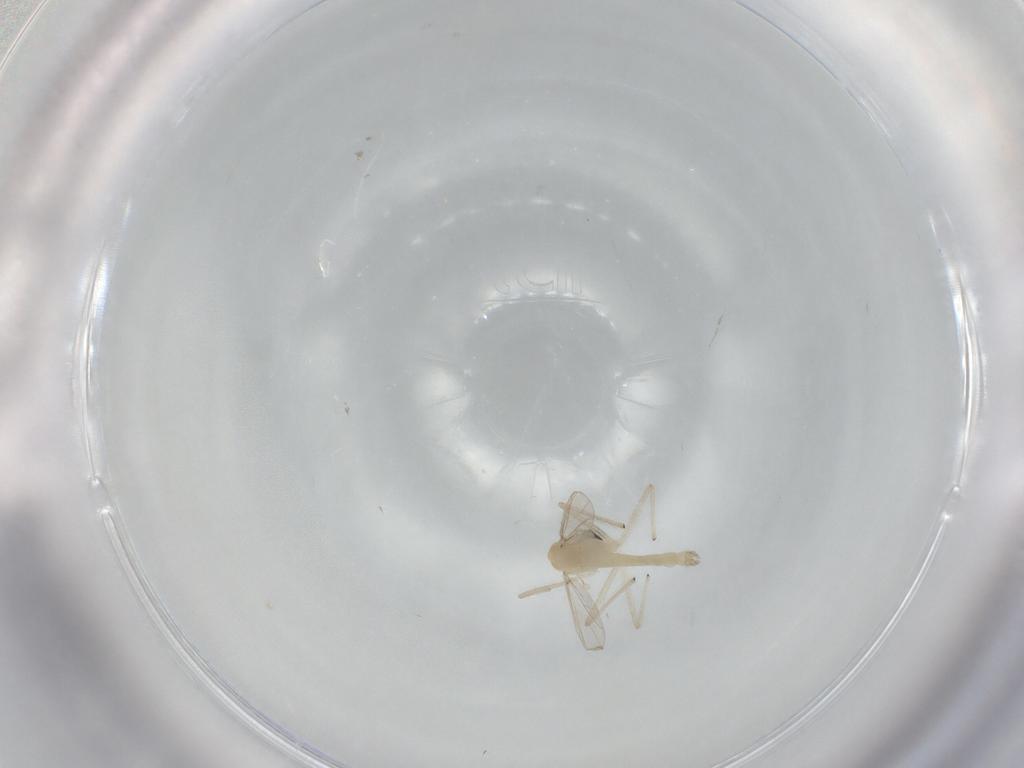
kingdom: Animalia
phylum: Arthropoda
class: Insecta
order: Diptera
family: Chironomidae
